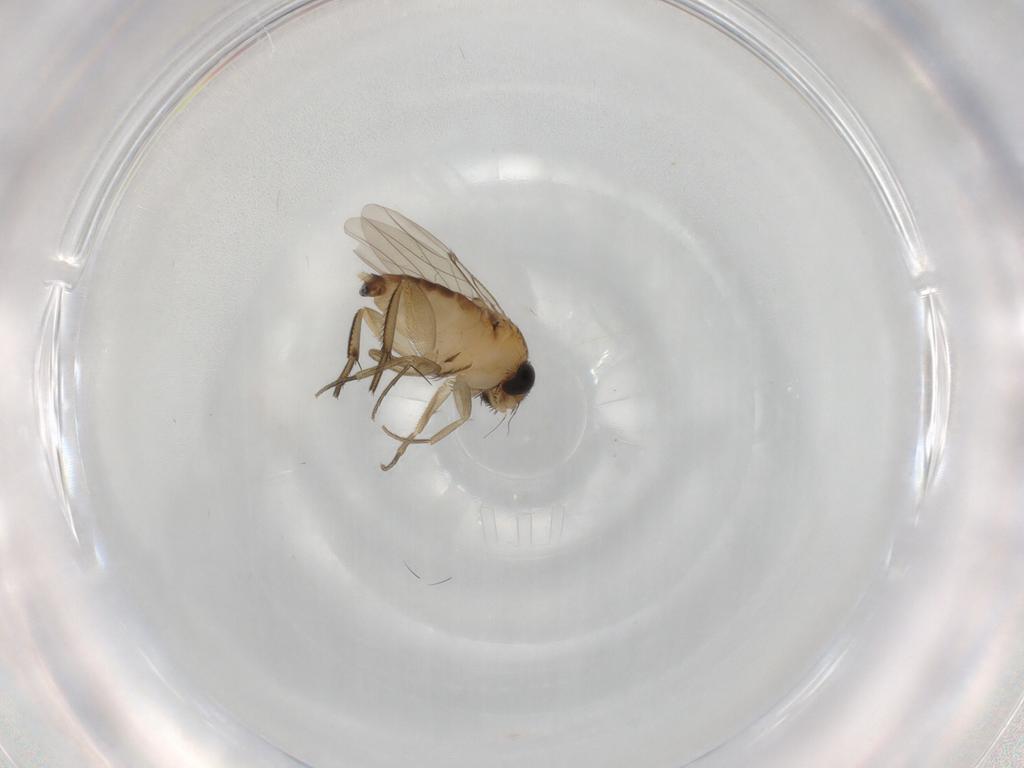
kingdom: Animalia
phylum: Arthropoda
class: Insecta
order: Diptera
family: Phoridae
